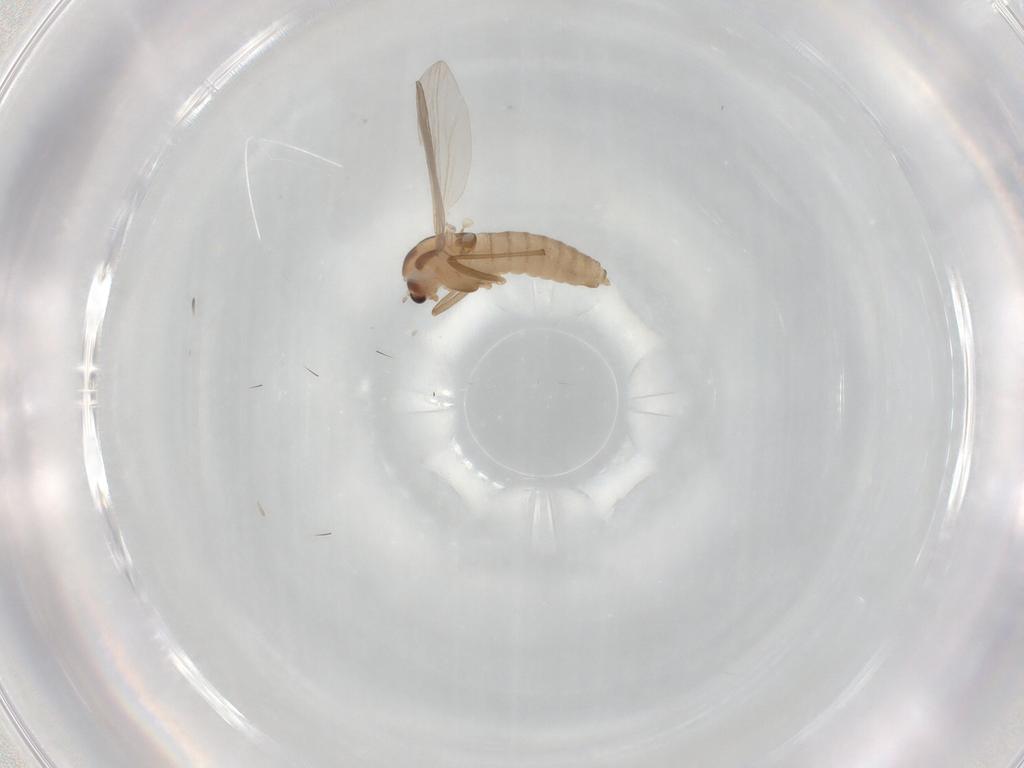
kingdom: Animalia
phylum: Arthropoda
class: Insecta
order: Diptera
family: Chironomidae
